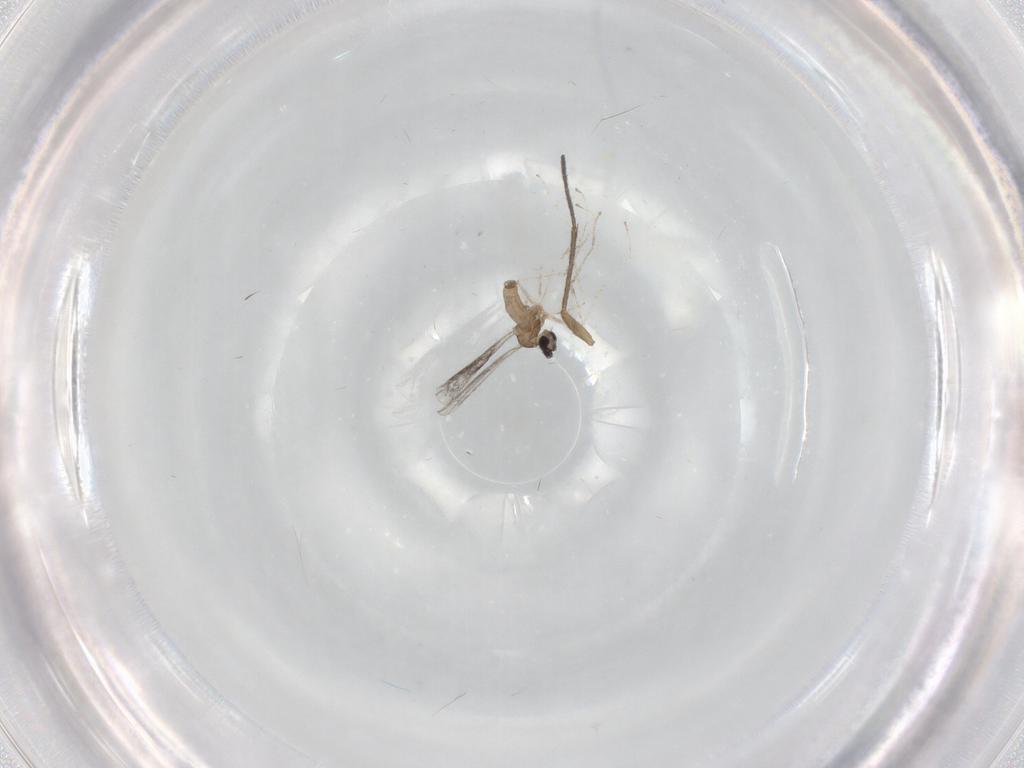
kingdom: Animalia
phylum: Arthropoda
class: Insecta
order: Diptera
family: Sciaridae
